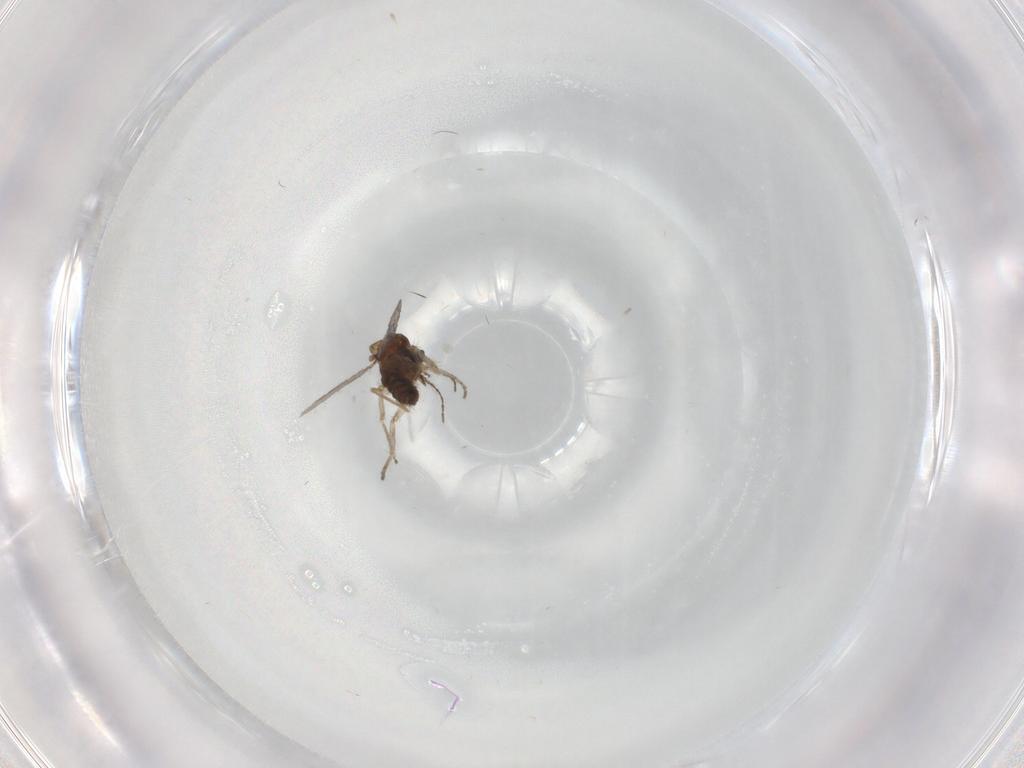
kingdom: Animalia
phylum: Arthropoda
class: Insecta
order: Diptera
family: Ceratopogonidae
